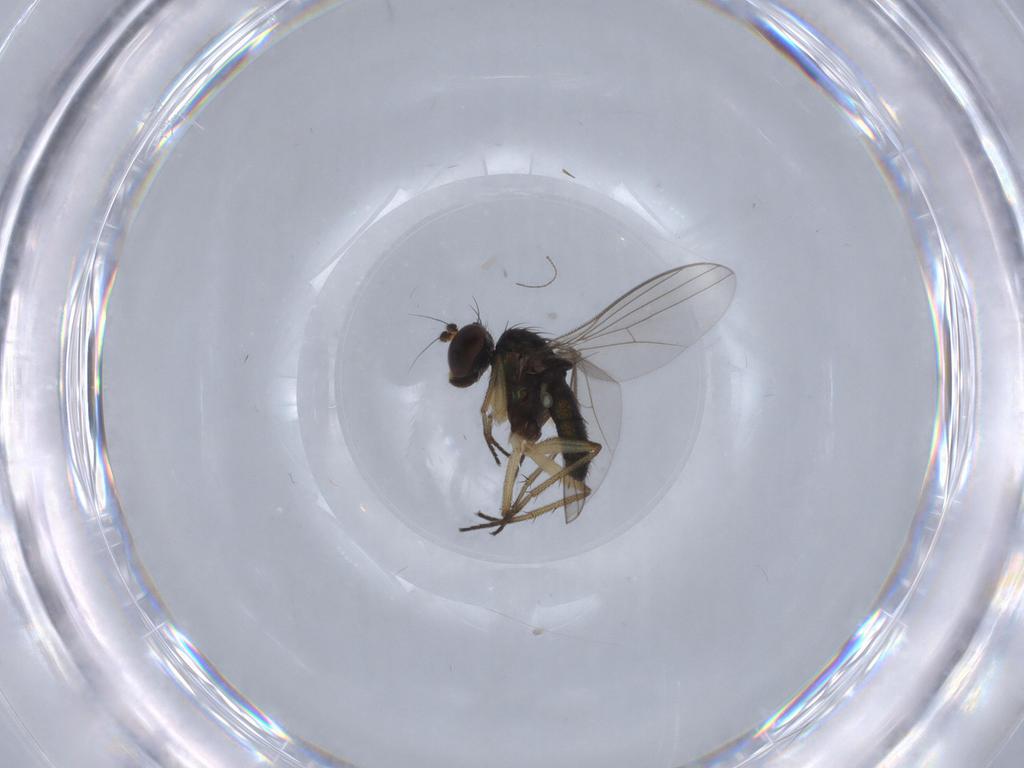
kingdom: Animalia
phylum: Arthropoda
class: Insecta
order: Diptera
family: Ceratopogonidae
